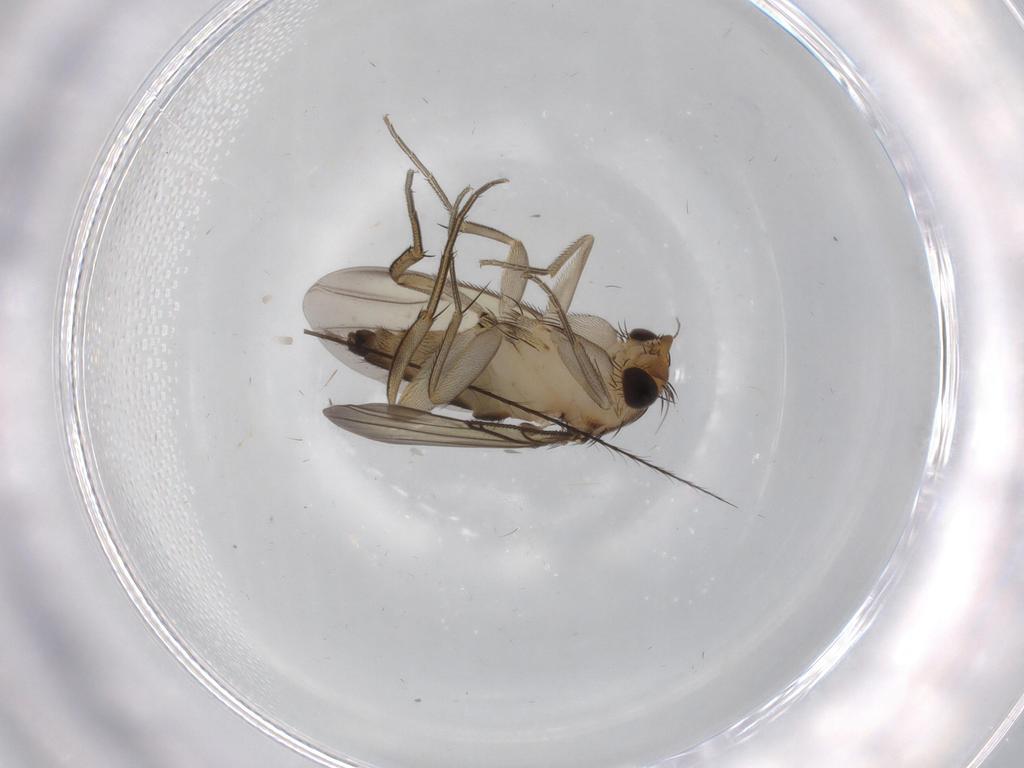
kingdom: Animalia
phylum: Arthropoda
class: Insecta
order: Diptera
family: Phoridae
